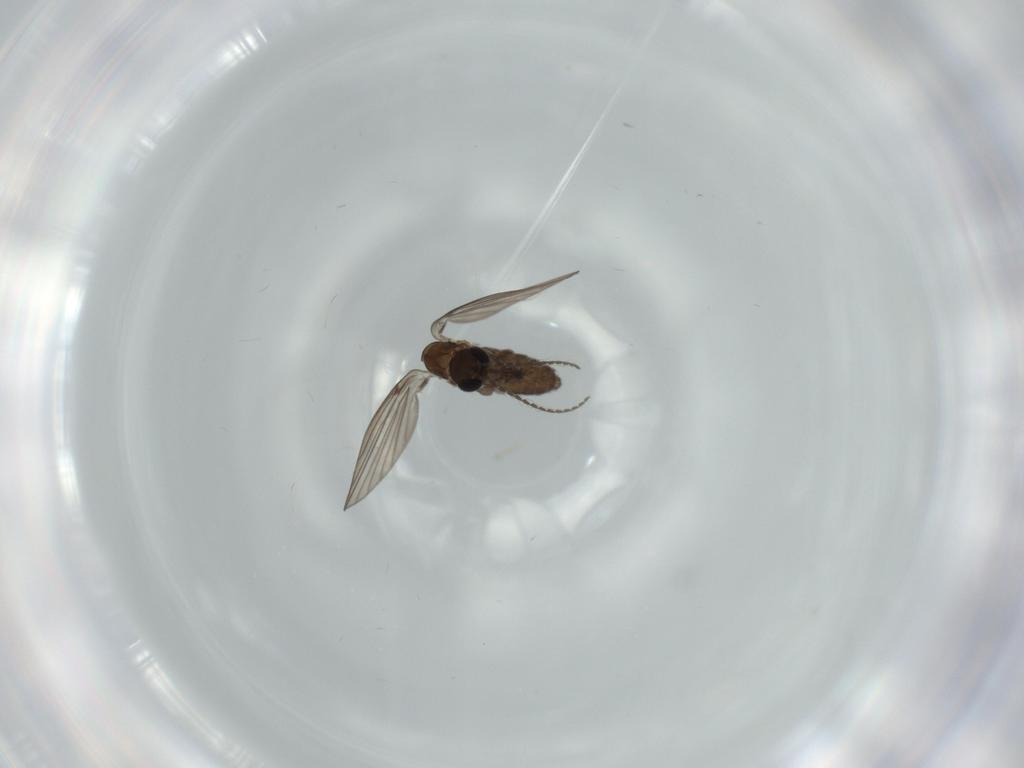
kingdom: Animalia
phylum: Arthropoda
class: Insecta
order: Diptera
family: Psychodidae
